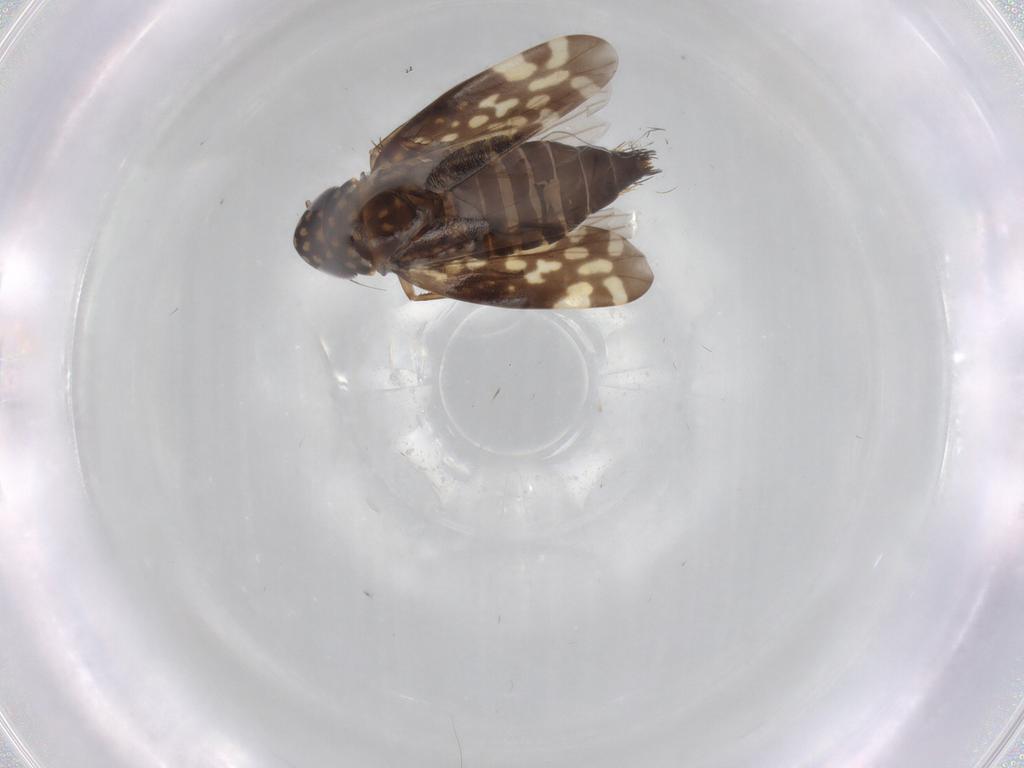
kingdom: Animalia
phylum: Arthropoda
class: Insecta
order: Hemiptera
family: Cicadellidae
